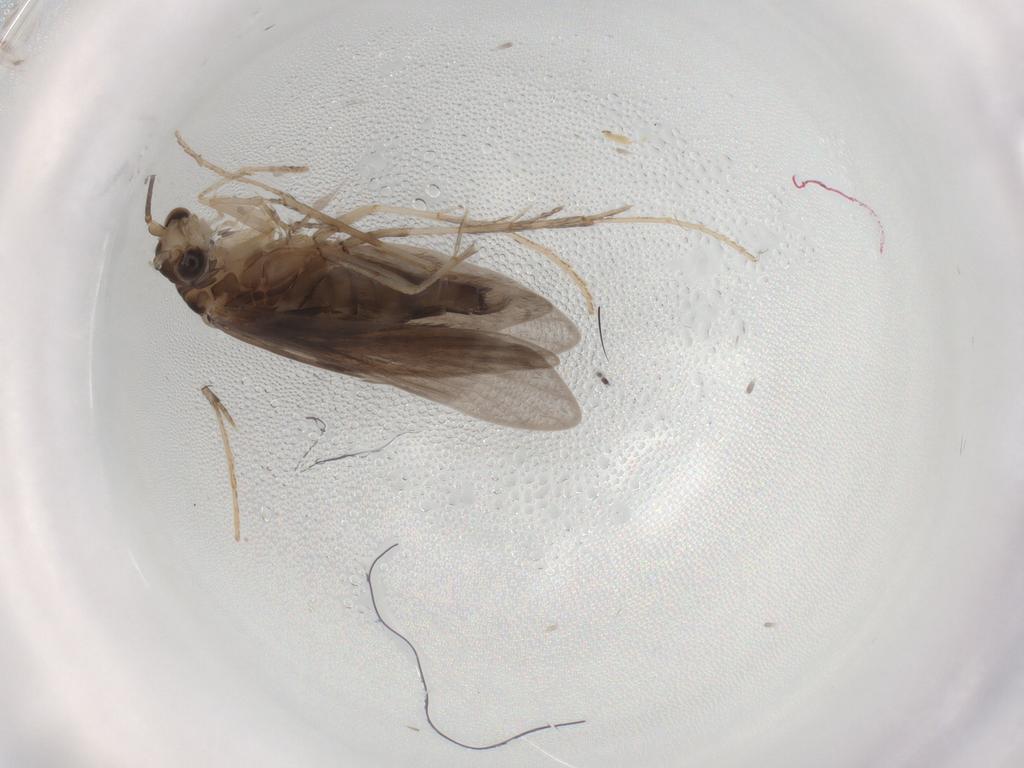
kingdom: Animalia
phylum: Arthropoda
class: Insecta
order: Trichoptera
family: Xiphocentronidae
